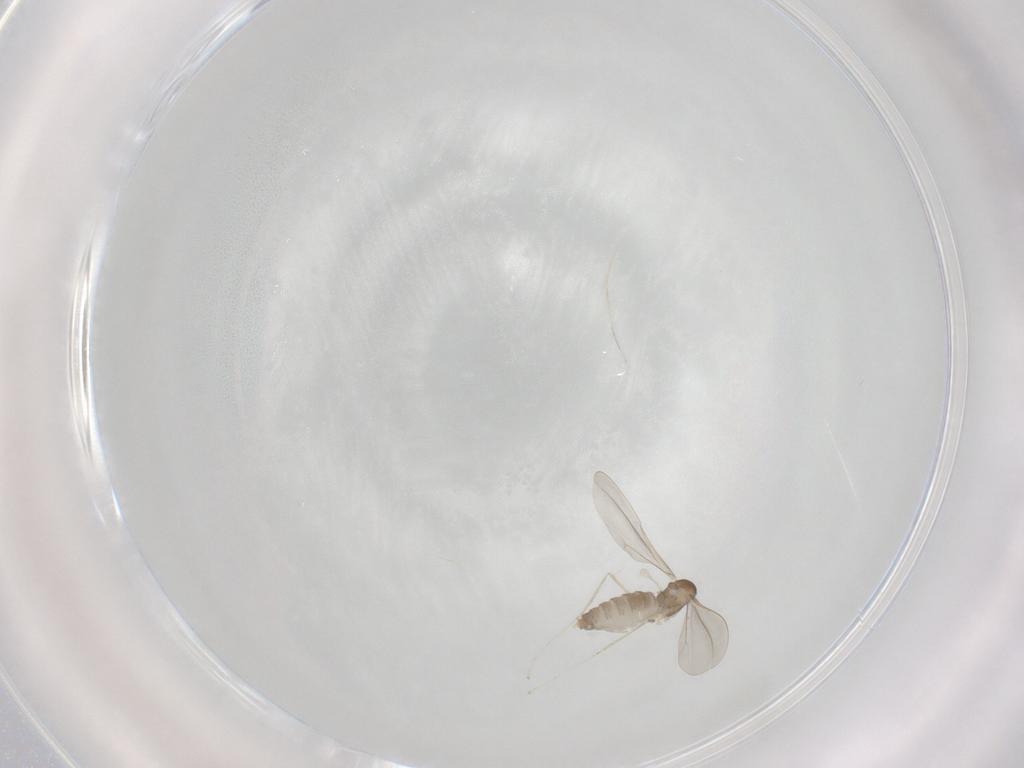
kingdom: Animalia
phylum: Arthropoda
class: Insecta
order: Diptera
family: Cecidomyiidae
